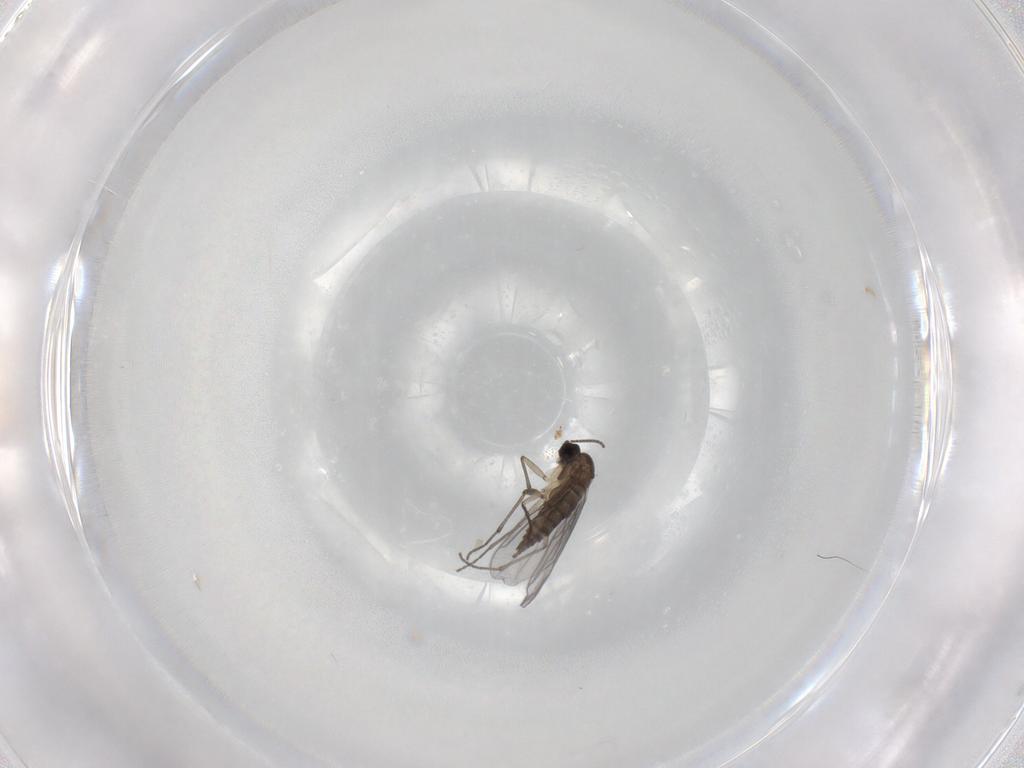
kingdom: Animalia
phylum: Arthropoda
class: Insecta
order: Diptera
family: Sciaridae
